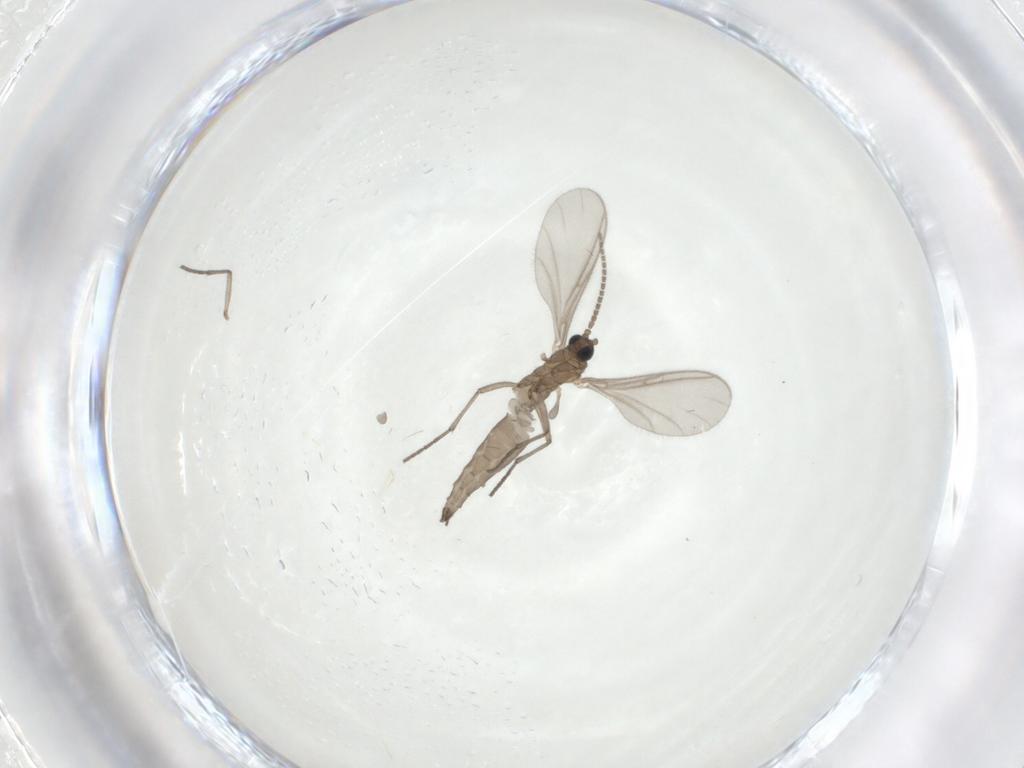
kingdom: Animalia
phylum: Arthropoda
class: Insecta
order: Diptera
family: Sciaridae
